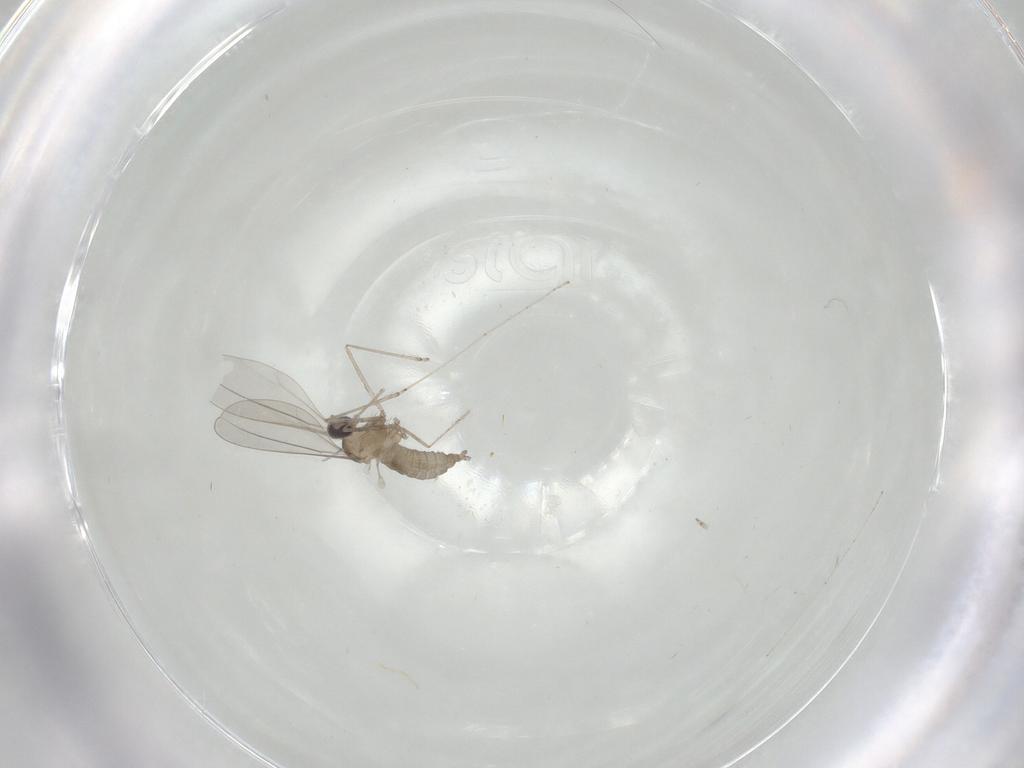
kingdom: Animalia
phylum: Arthropoda
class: Insecta
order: Diptera
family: Cecidomyiidae
